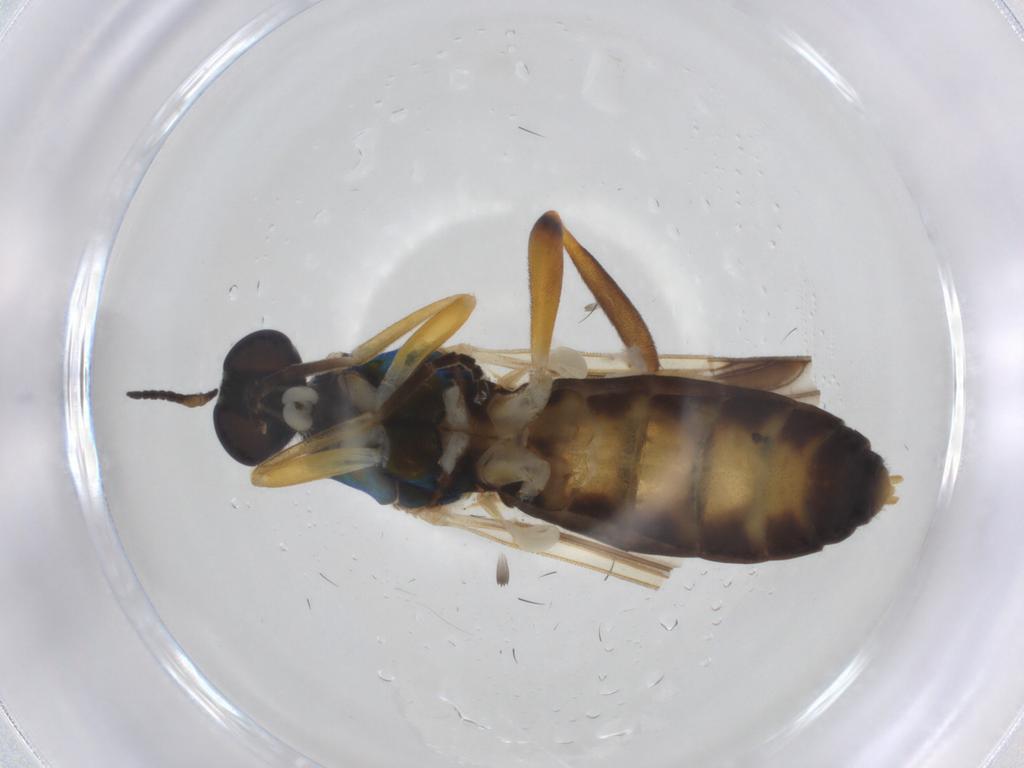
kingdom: Animalia
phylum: Arthropoda
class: Insecta
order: Diptera
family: Stratiomyidae
